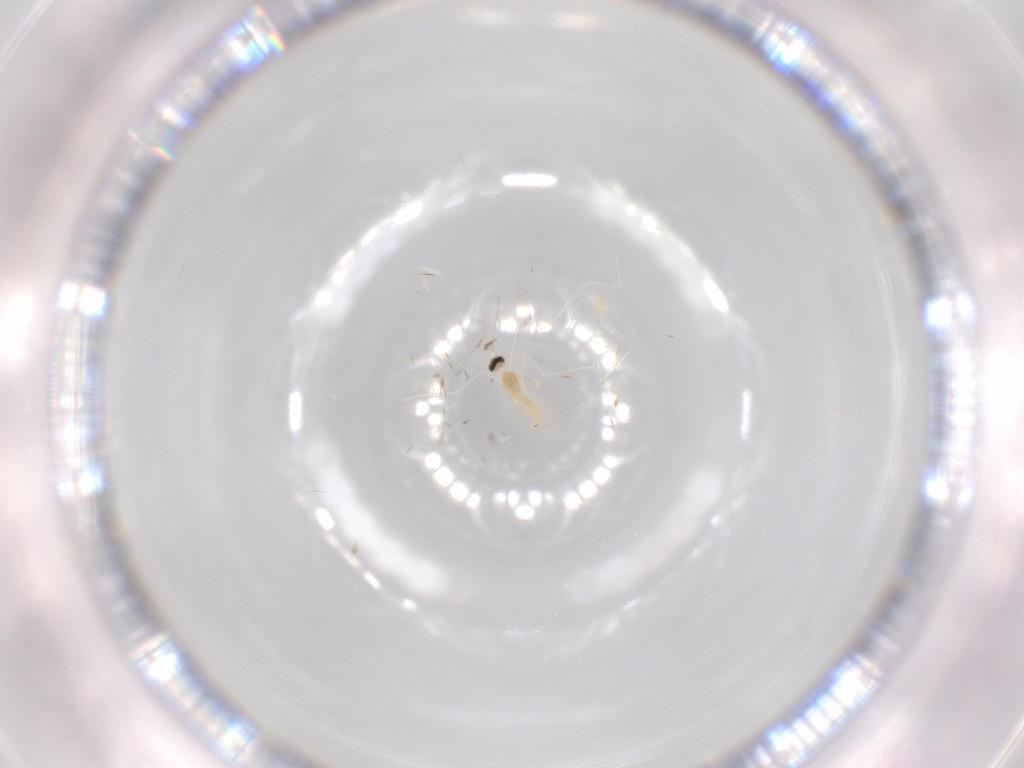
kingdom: Animalia
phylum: Arthropoda
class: Insecta
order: Diptera
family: Cecidomyiidae
